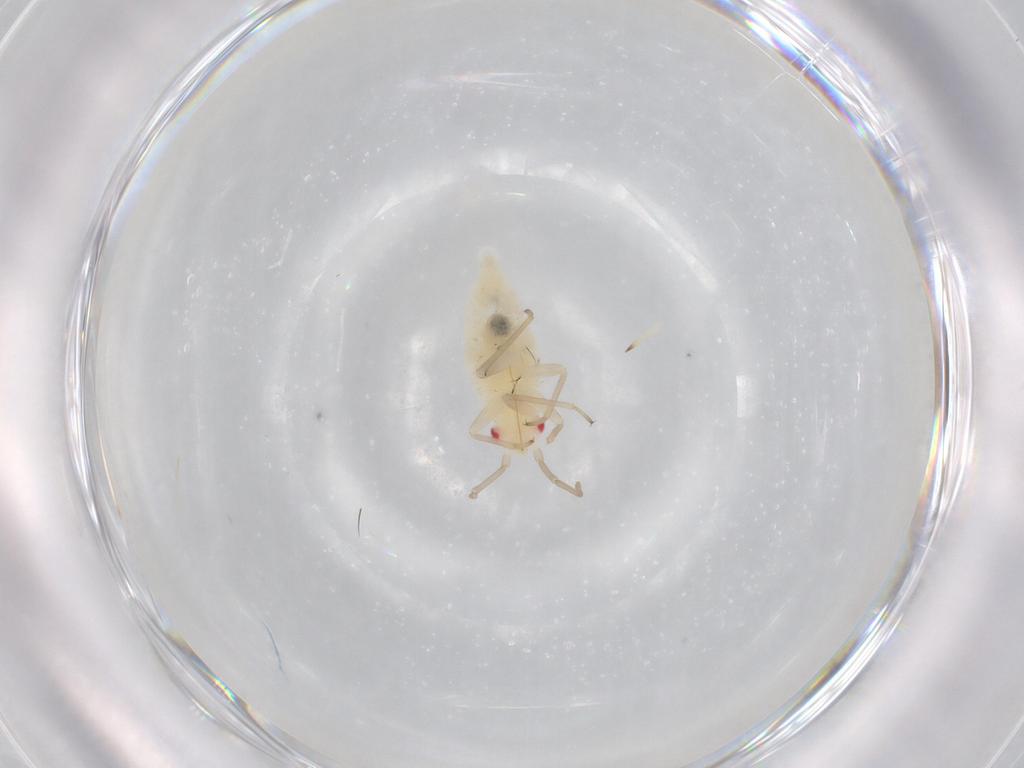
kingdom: Animalia
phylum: Arthropoda
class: Insecta
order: Hemiptera
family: Miridae
